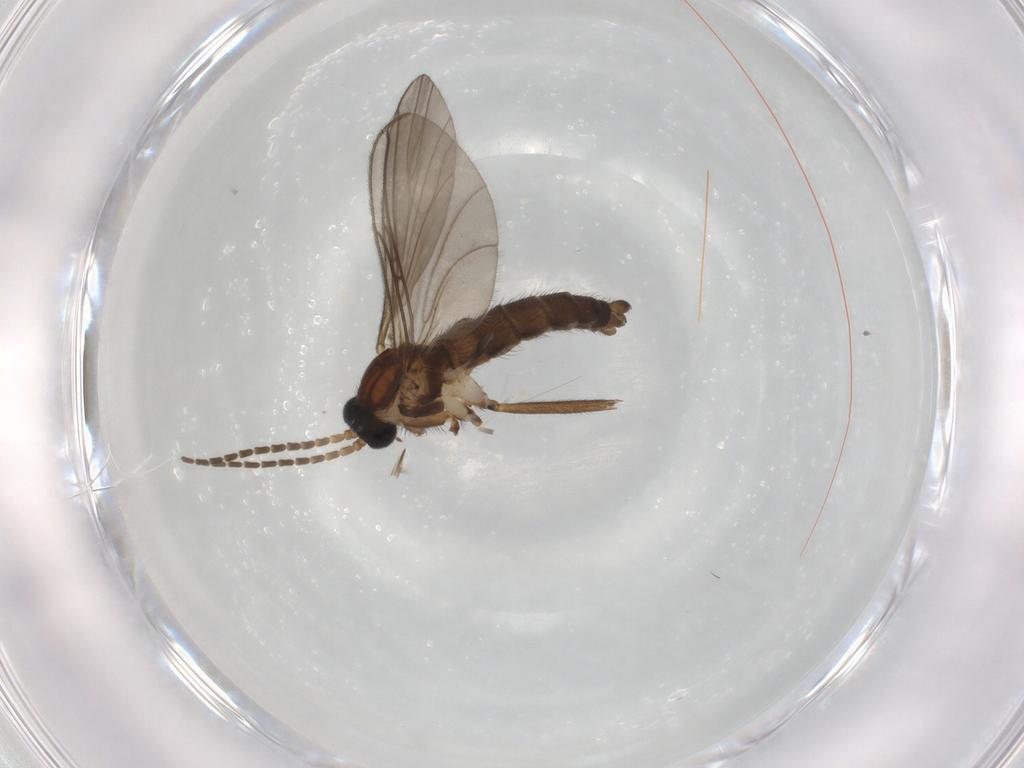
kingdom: Animalia
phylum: Arthropoda
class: Insecta
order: Diptera
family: Sciaridae
